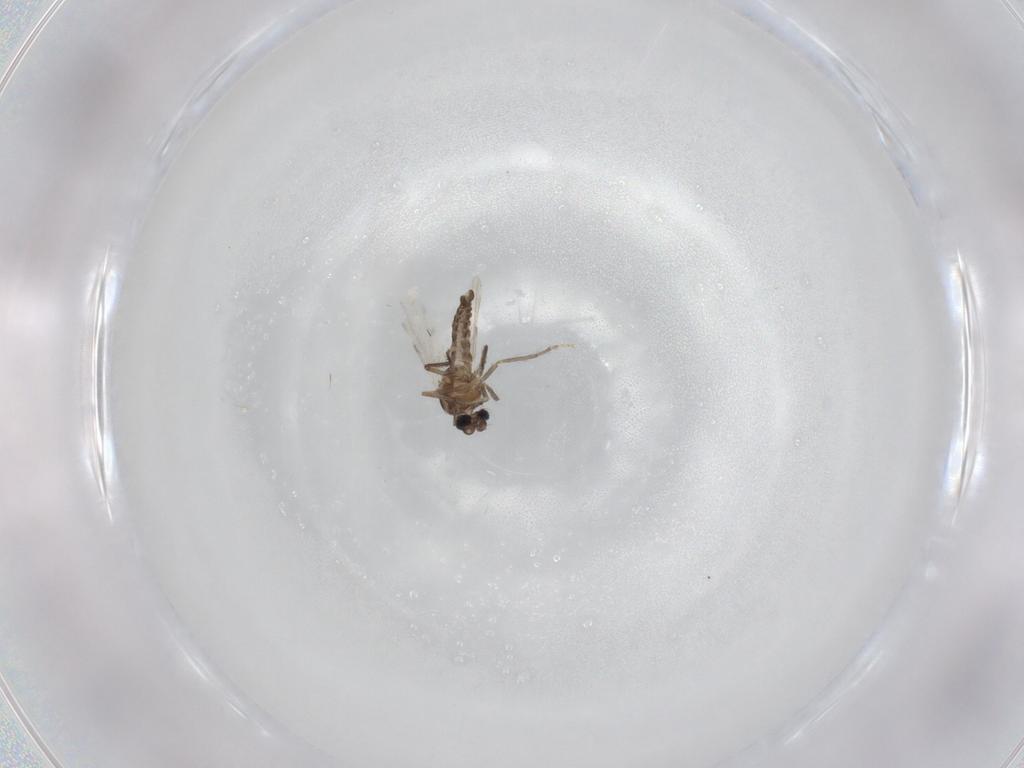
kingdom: Animalia
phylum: Arthropoda
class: Insecta
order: Diptera
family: Ceratopogonidae
